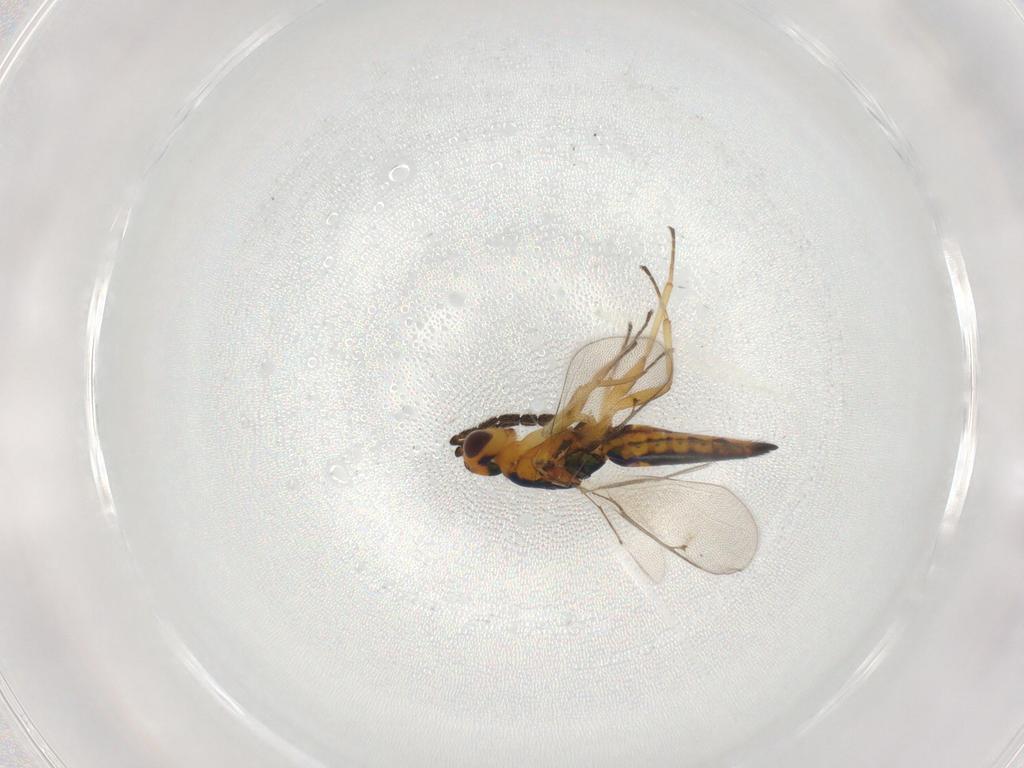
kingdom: Animalia
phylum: Arthropoda
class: Insecta
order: Hymenoptera
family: Eulophidae
